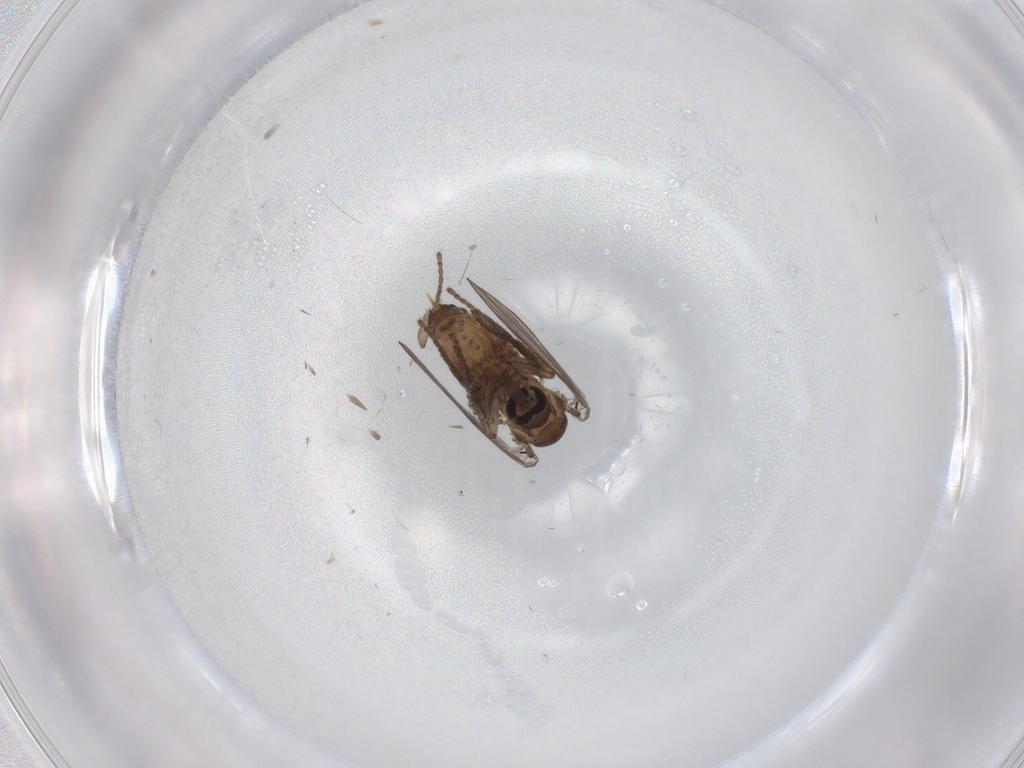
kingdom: Animalia
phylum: Arthropoda
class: Insecta
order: Diptera
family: Psychodidae
